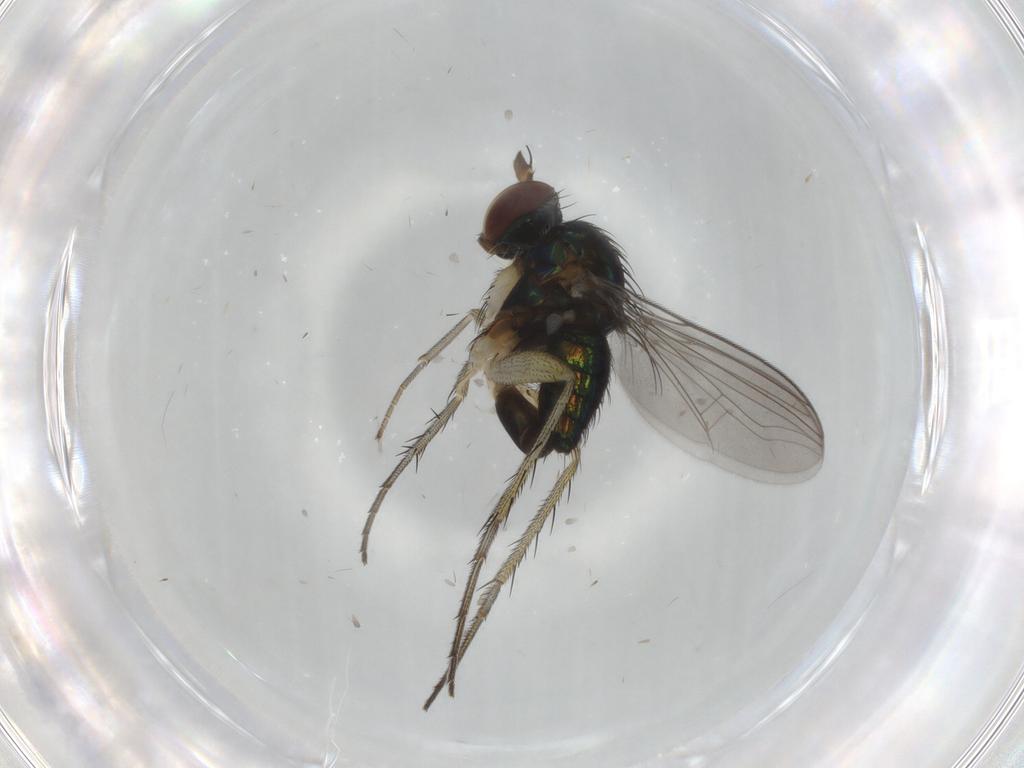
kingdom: Animalia
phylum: Arthropoda
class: Insecta
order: Diptera
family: Dolichopodidae
